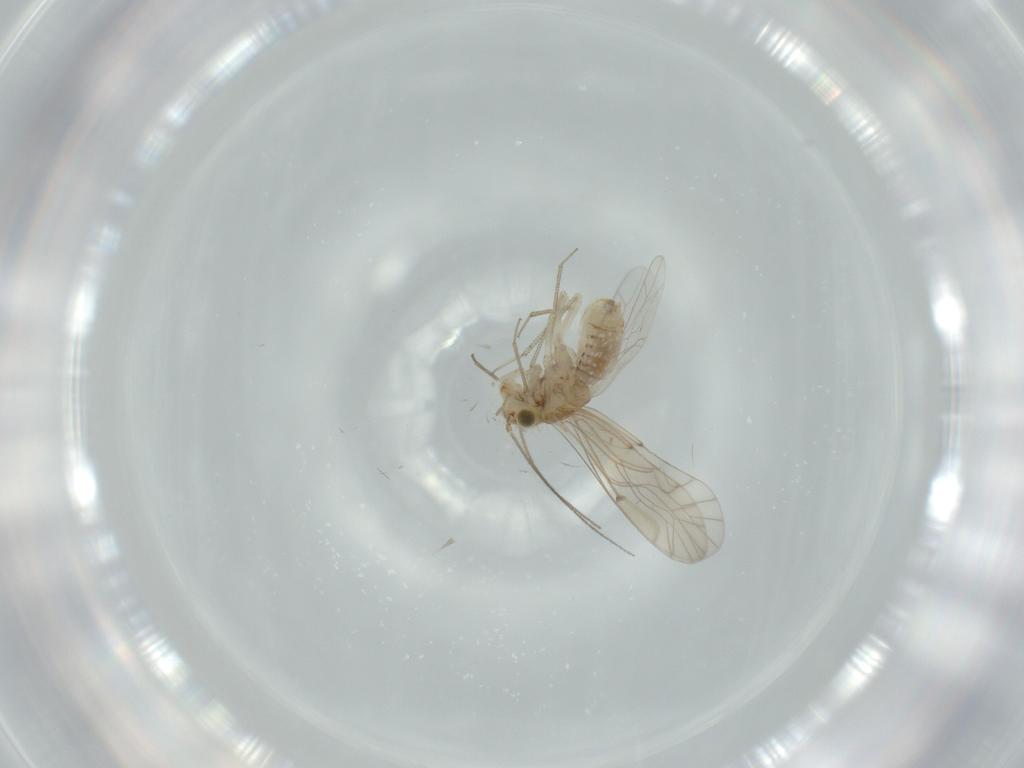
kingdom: Animalia
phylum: Arthropoda
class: Insecta
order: Psocodea
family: Lachesillidae
